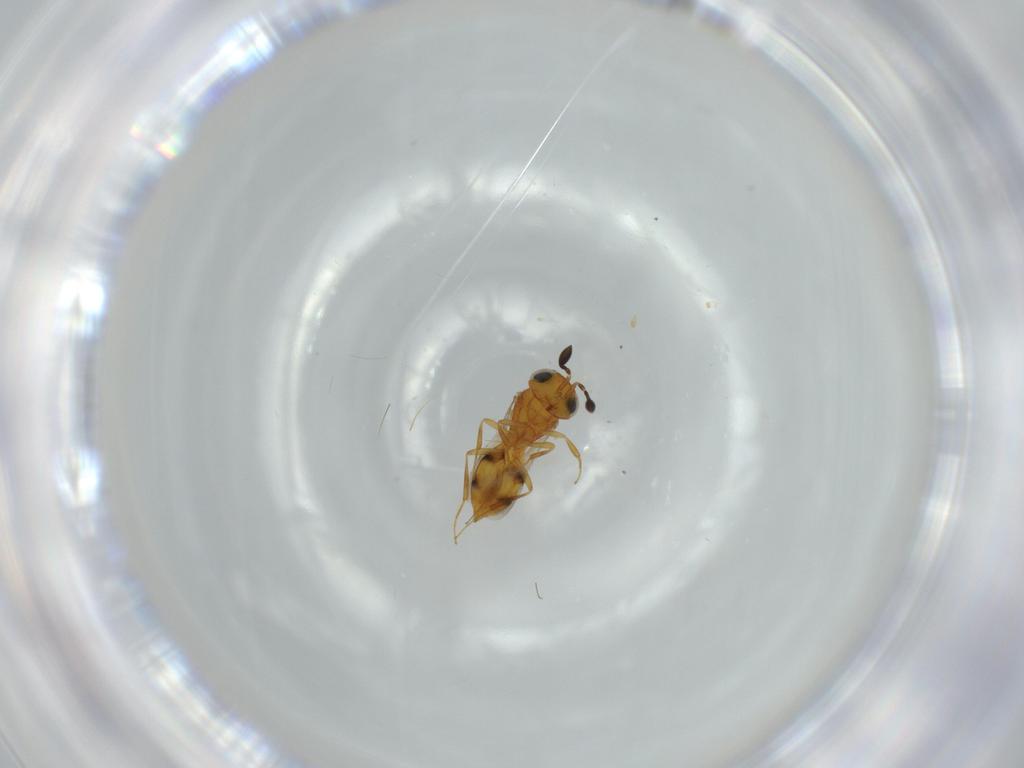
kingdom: Animalia
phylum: Arthropoda
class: Insecta
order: Hymenoptera
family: Scelionidae
